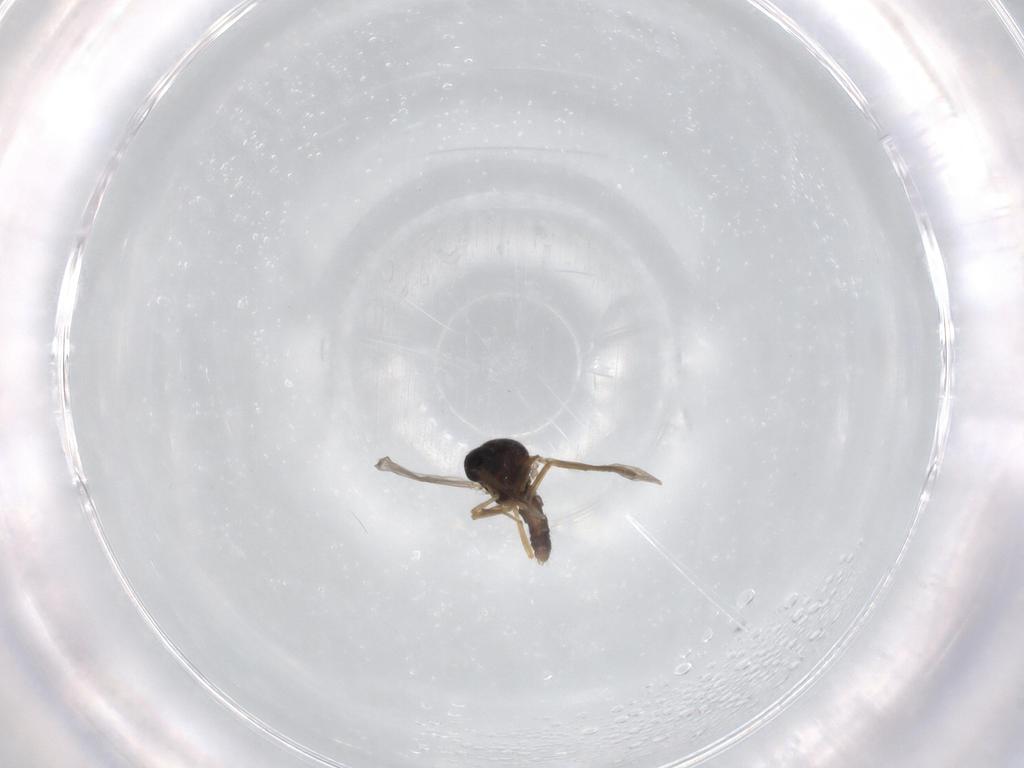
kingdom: Animalia
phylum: Arthropoda
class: Insecta
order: Diptera
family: Ceratopogonidae
